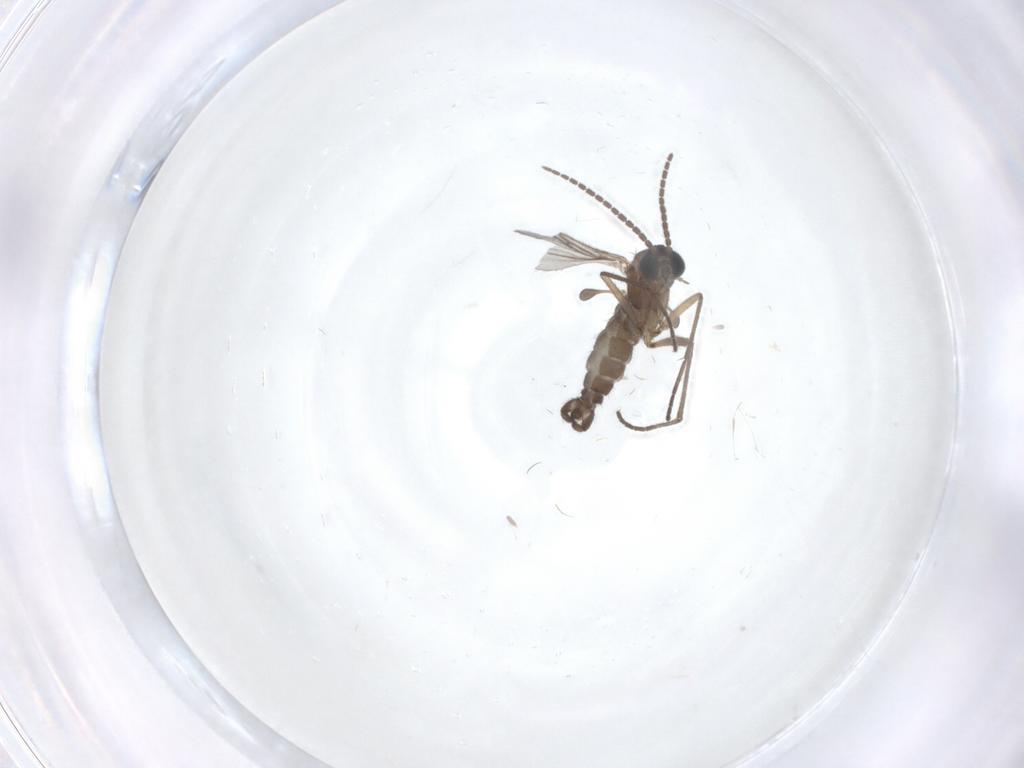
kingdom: Animalia
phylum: Arthropoda
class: Insecta
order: Diptera
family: Sciaridae
